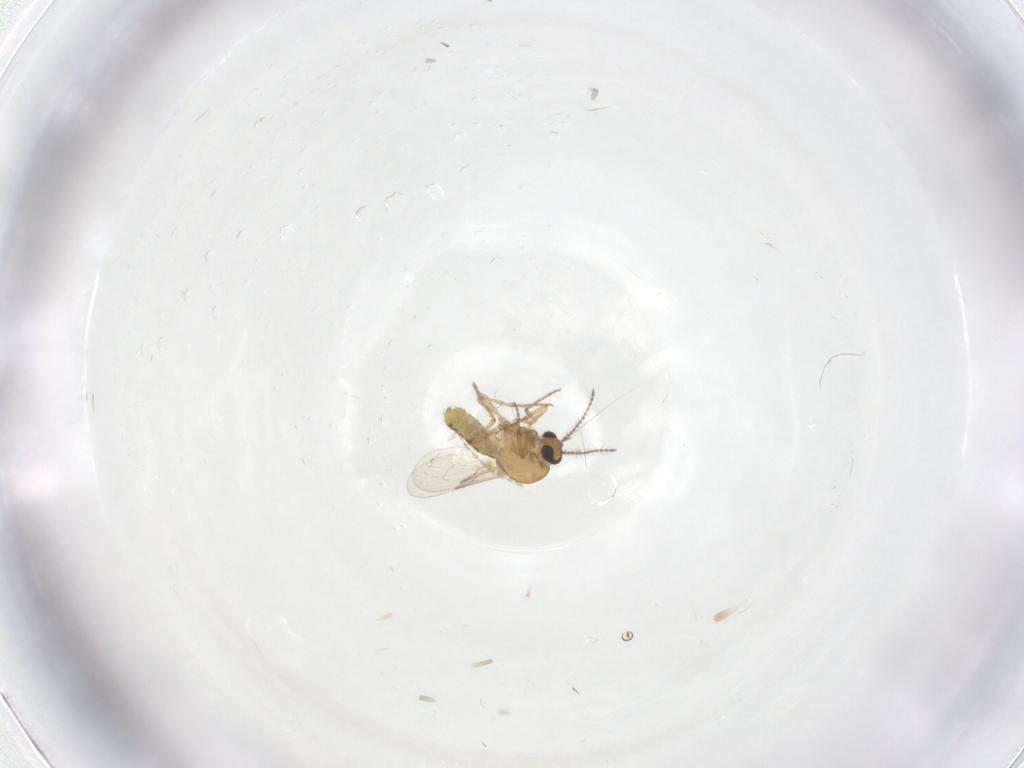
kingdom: Animalia
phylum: Arthropoda
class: Insecta
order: Diptera
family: Ceratopogonidae
